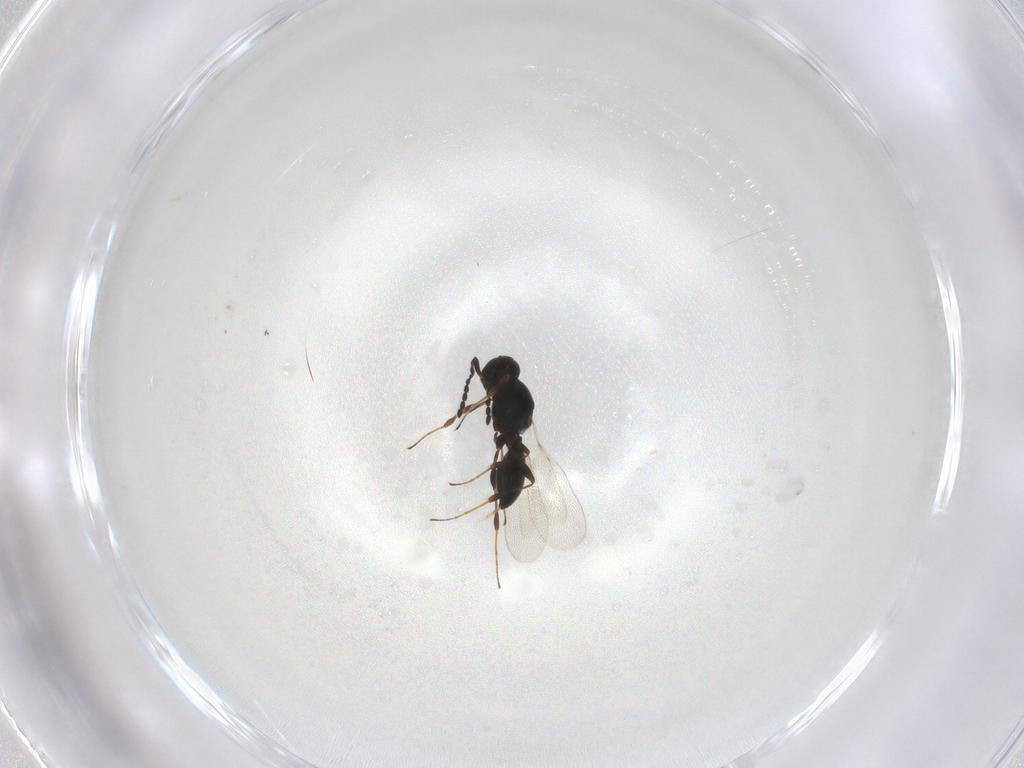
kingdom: Animalia
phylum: Arthropoda
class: Insecta
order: Hymenoptera
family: Platygastridae
